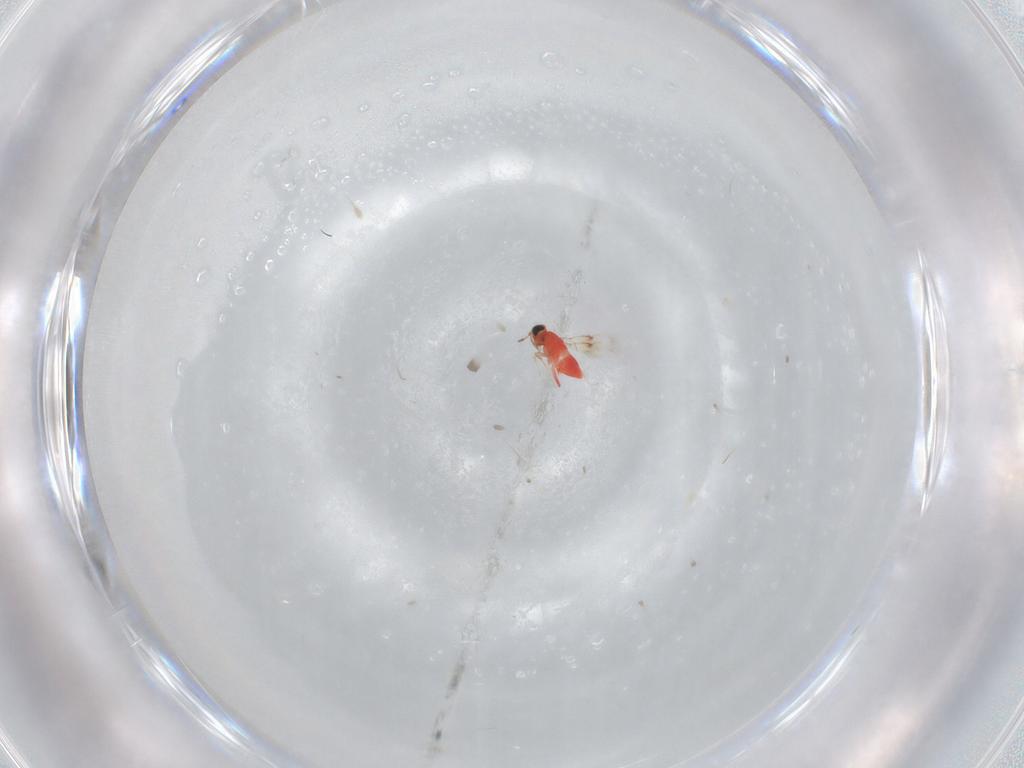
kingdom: Animalia
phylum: Arthropoda
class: Insecta
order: Hymenoptera
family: Trichogrammatidae
